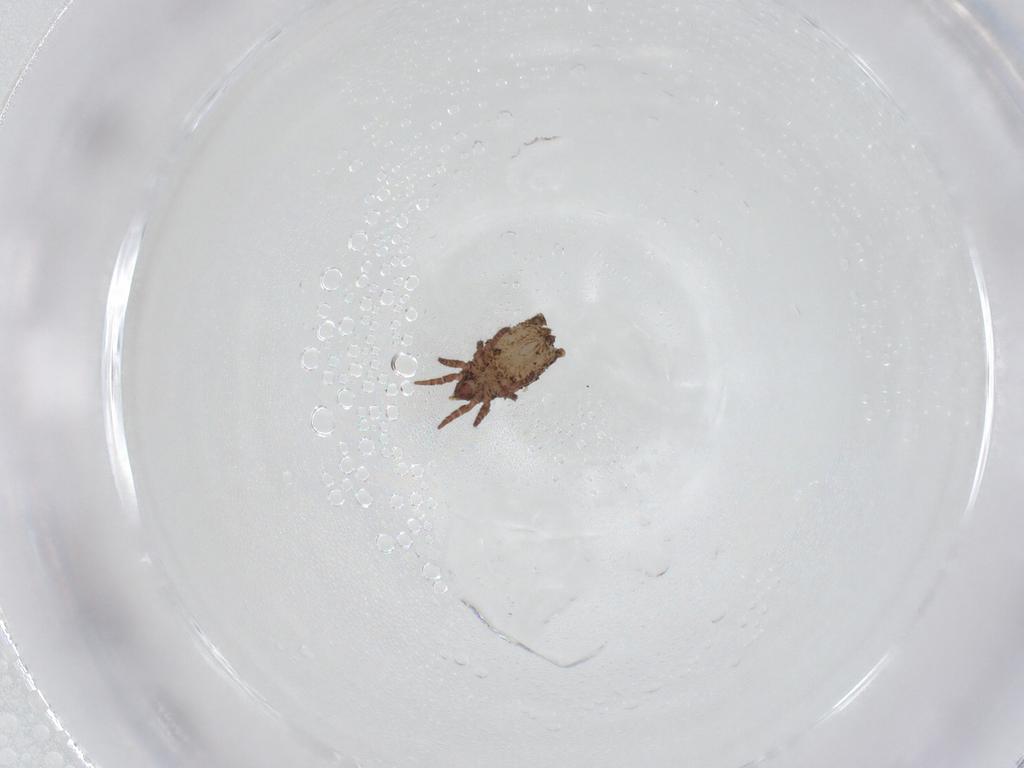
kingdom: Animalia
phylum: Arthropoda
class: Arachnida
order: Sarcoptiformes
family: Crotoniidae
